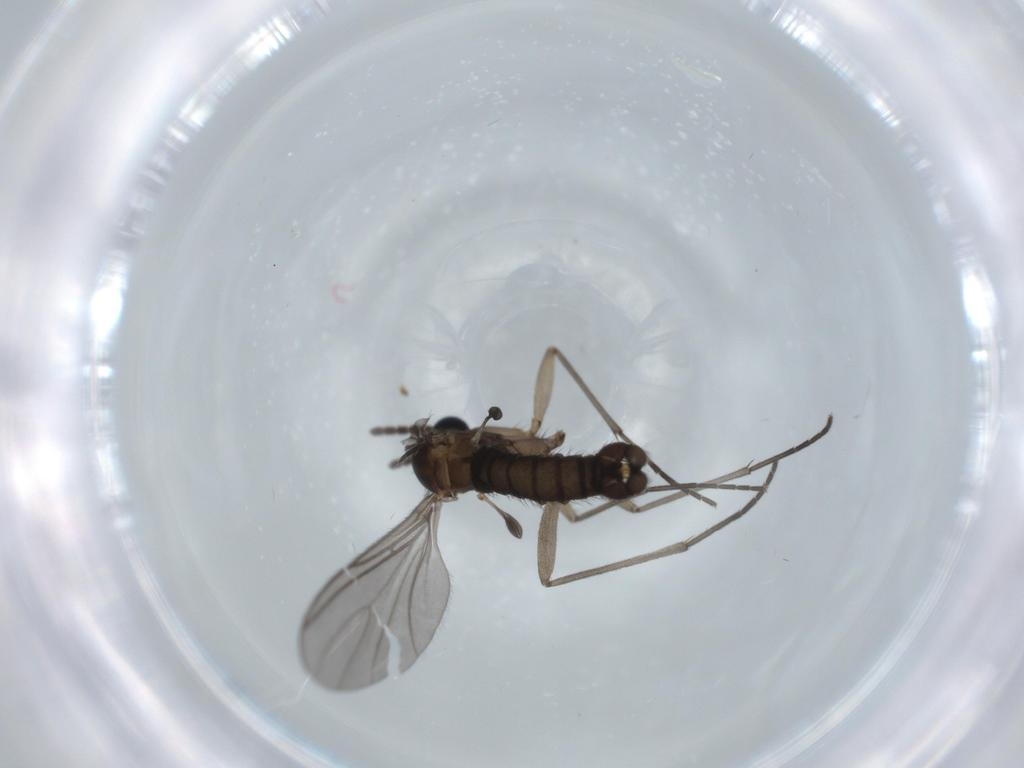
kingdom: Animalia
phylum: Arthropoda
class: Insecta
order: Diptera
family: Sciaridae
